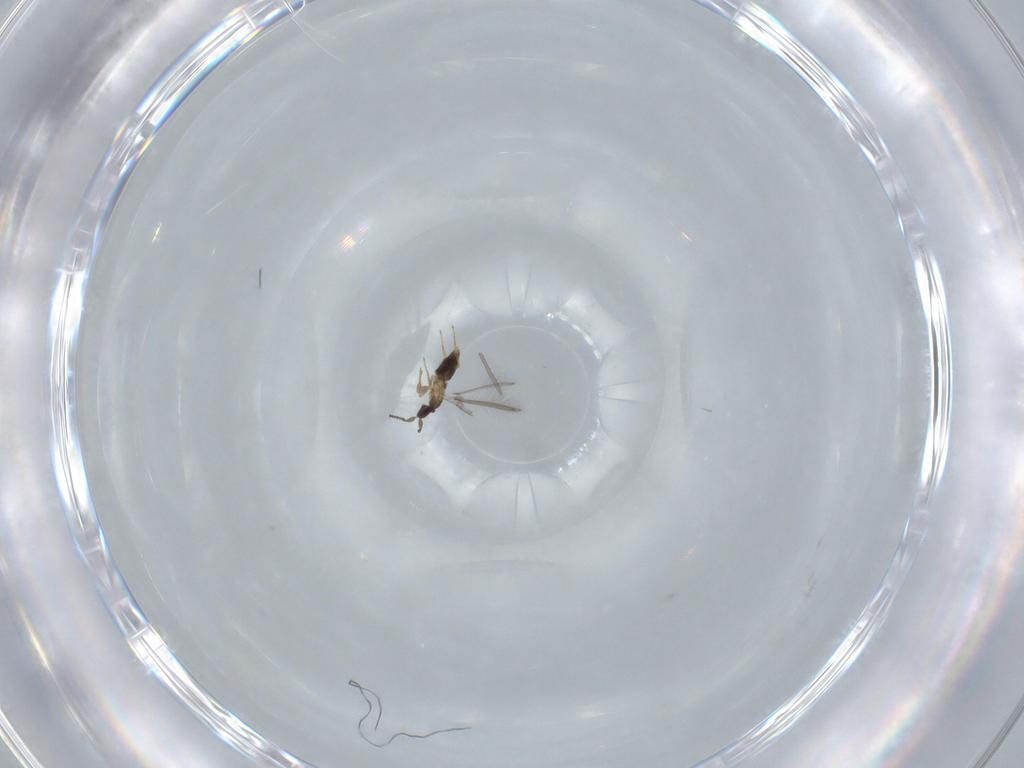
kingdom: Animalia
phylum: Arthropoda
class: Insecta
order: Hymenoptera
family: Mymaridae
